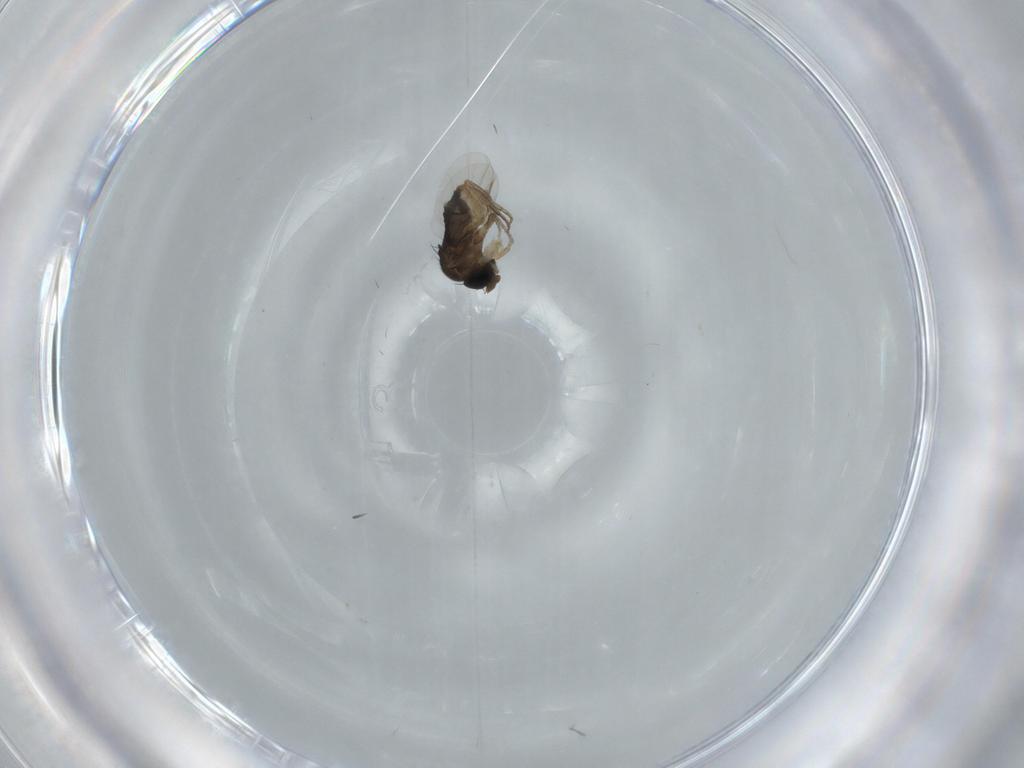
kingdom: Animalia
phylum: Arthropoda
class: Insecta
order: Diptera
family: Phoridae
